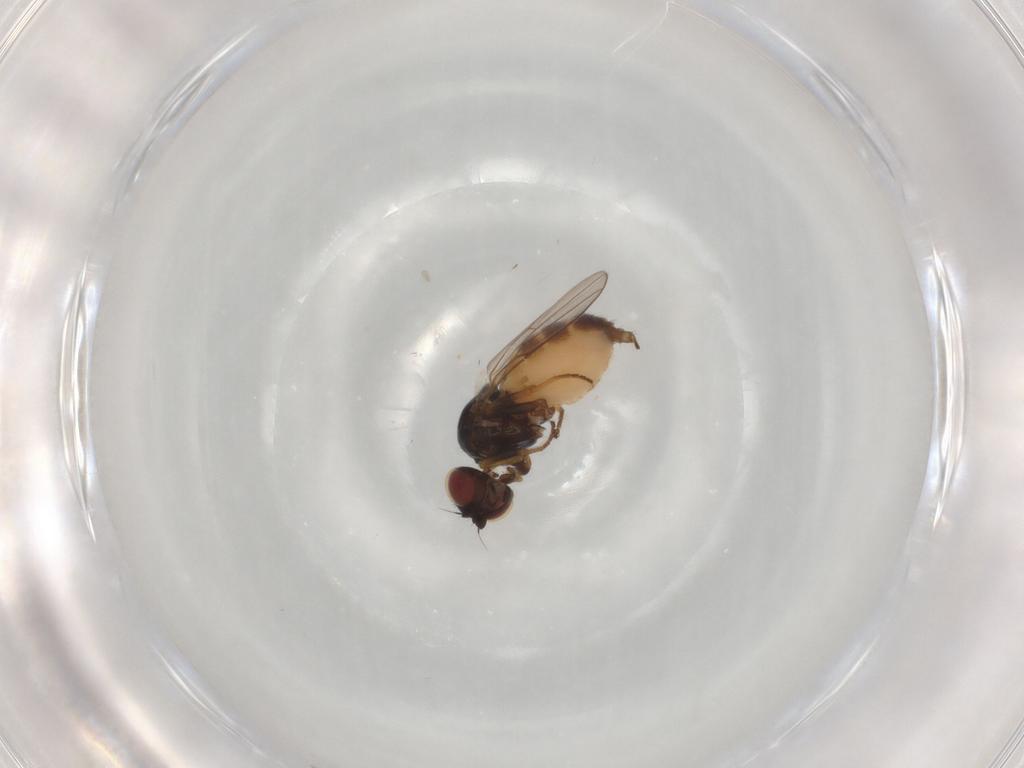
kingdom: Animalia
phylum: Arthropoda
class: Insecta
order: Diptera
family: Chloropidae
